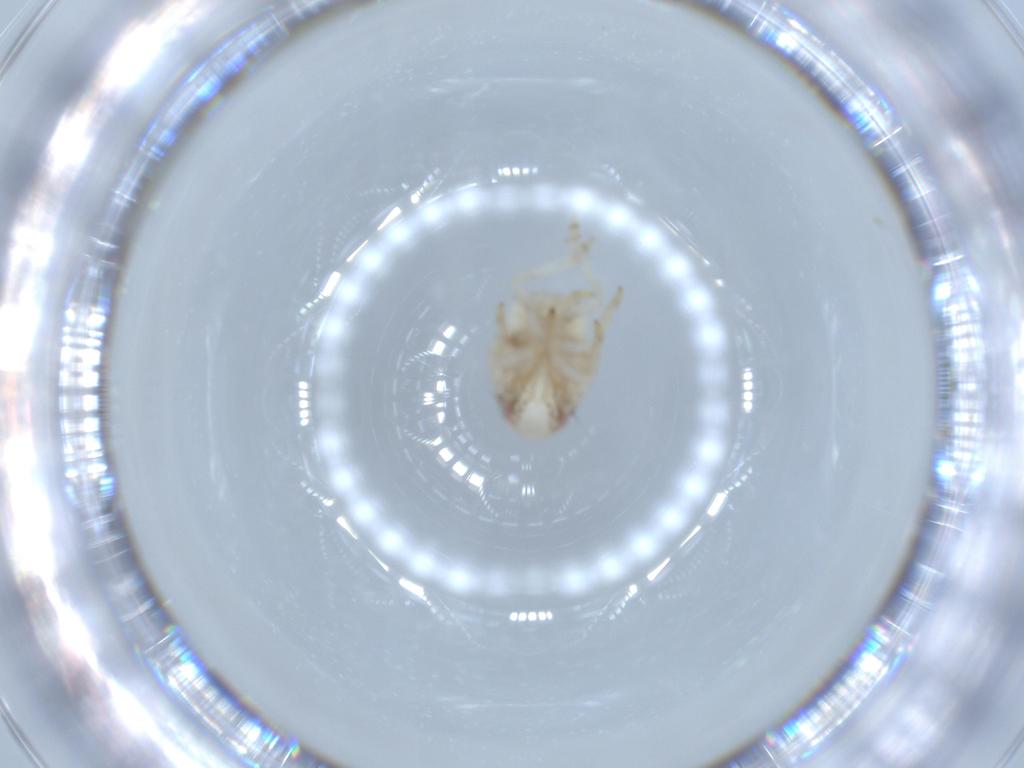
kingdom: Animalia
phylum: Arthropoda
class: Insecta
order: Hemiptera
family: Acanaloniidae
